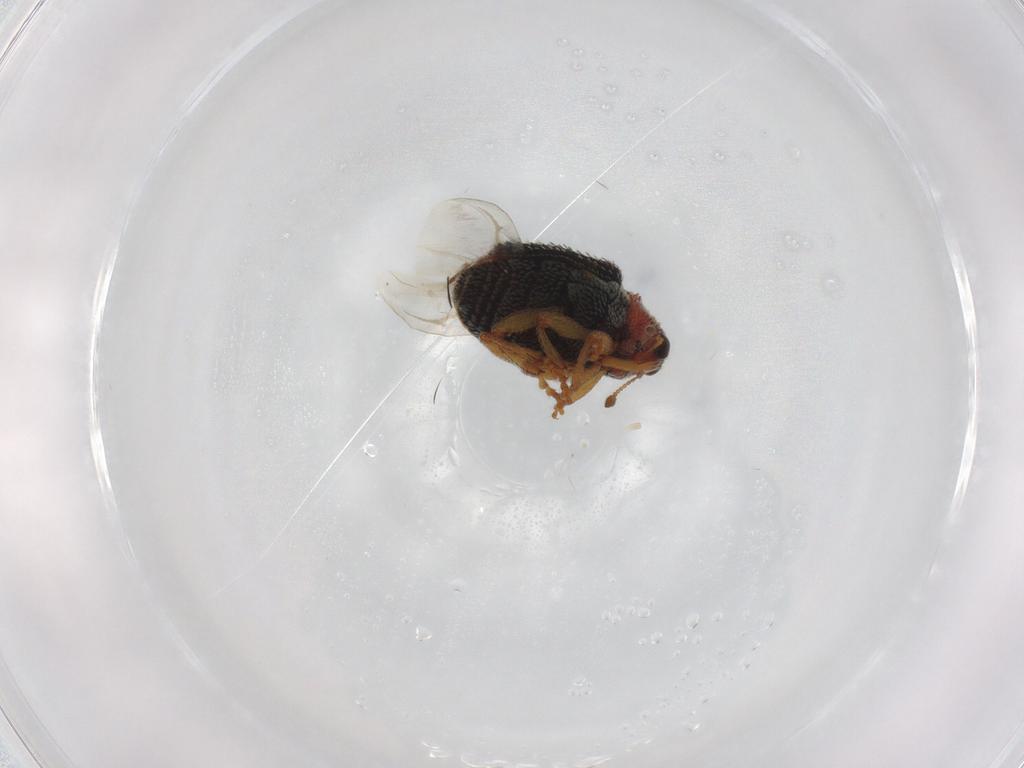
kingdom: Animalia
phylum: Arthropoda
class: Insecta
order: Coleoptera
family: Curculionidae
